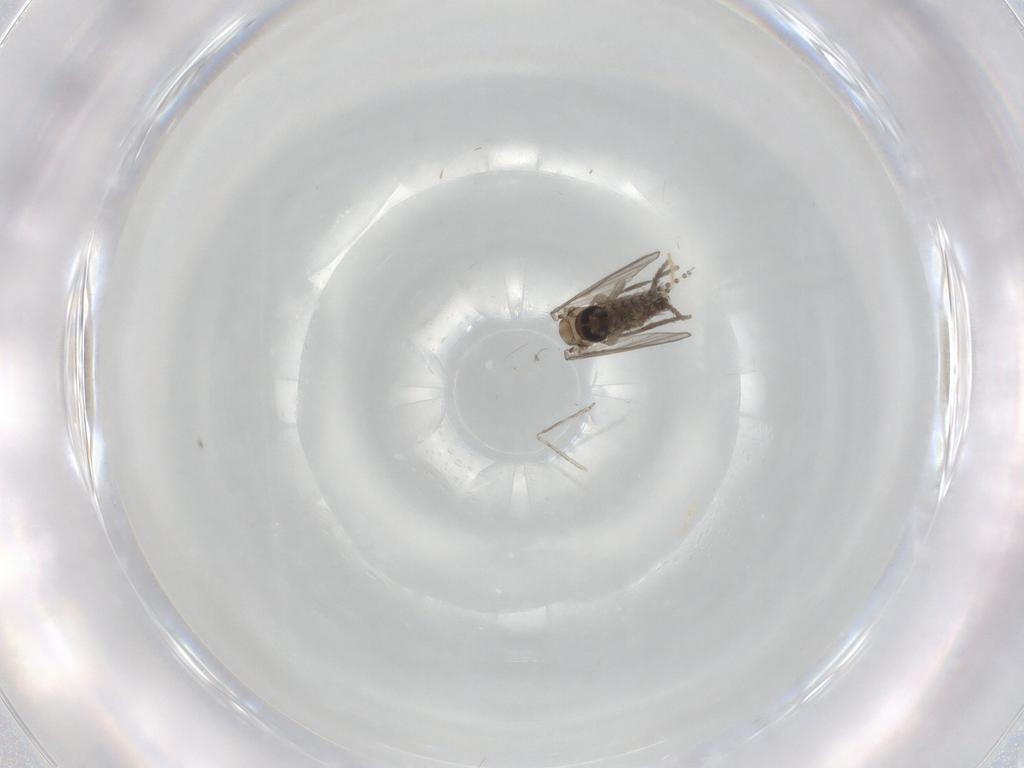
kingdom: Animalia
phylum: Arthropoda
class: Insecta
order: Diptera
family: Psychodidae
